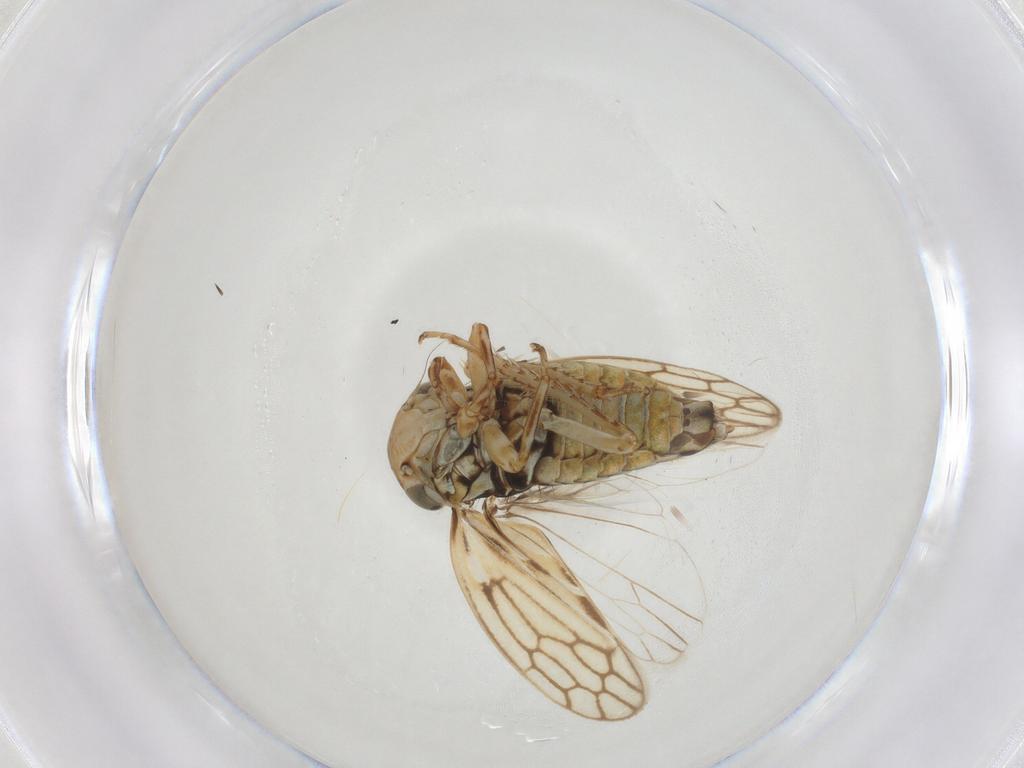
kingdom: Animalia
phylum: Arthropoda
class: Insecta
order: Hemiptera
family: Cicadellidae
